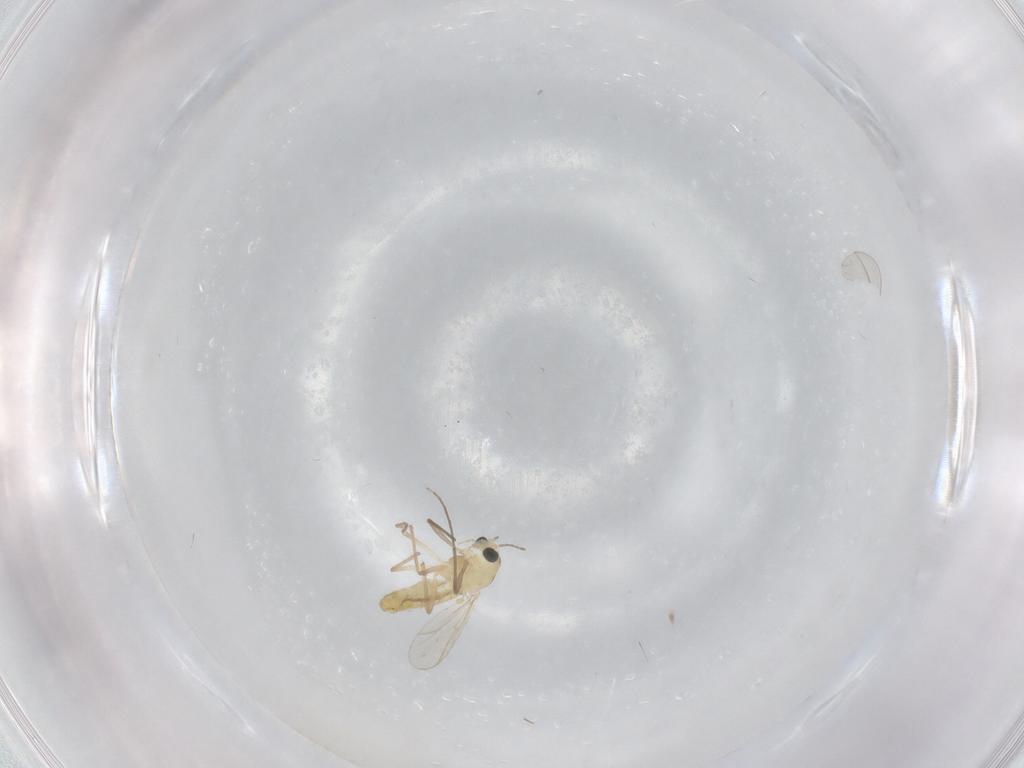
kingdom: Animalia
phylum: Arthropoda
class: Insecta
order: Diptera
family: Chironomidae
